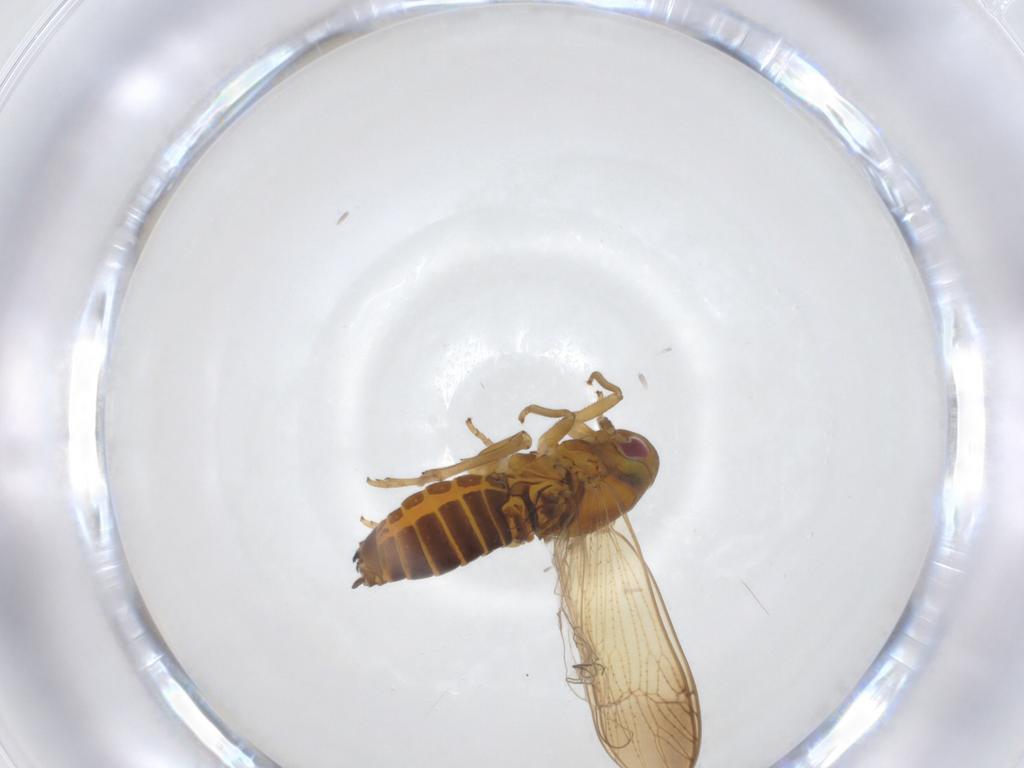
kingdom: Animalia
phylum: Arthropoda
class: Insecta
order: Hemiptera
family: Delphacidae
